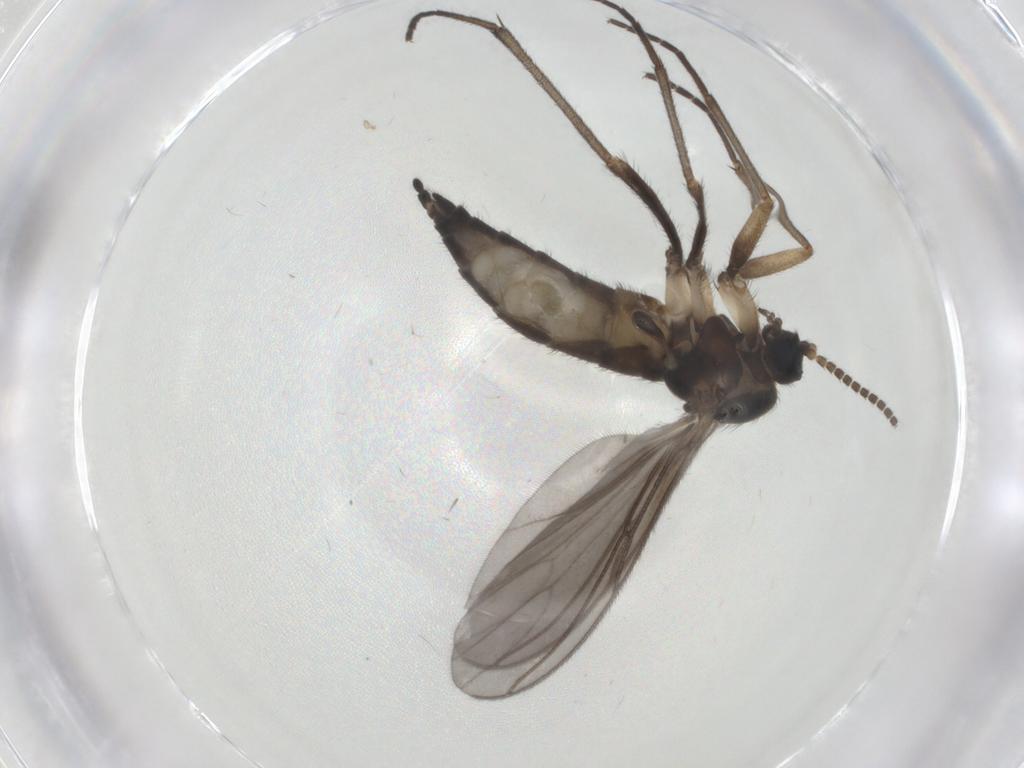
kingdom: Animalia
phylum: Arthropoda
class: Insecta
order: Diptera
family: Sciaridae
